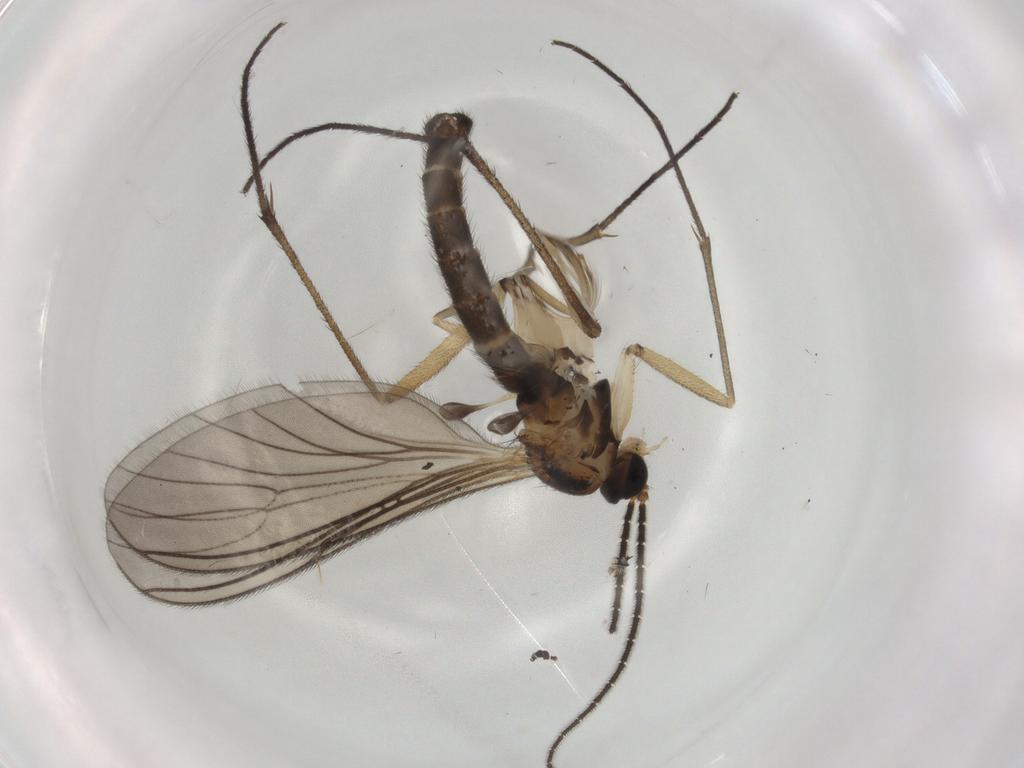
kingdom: Animalia
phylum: Arthropoda
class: Insecta
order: Diptera
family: Sciaridae
